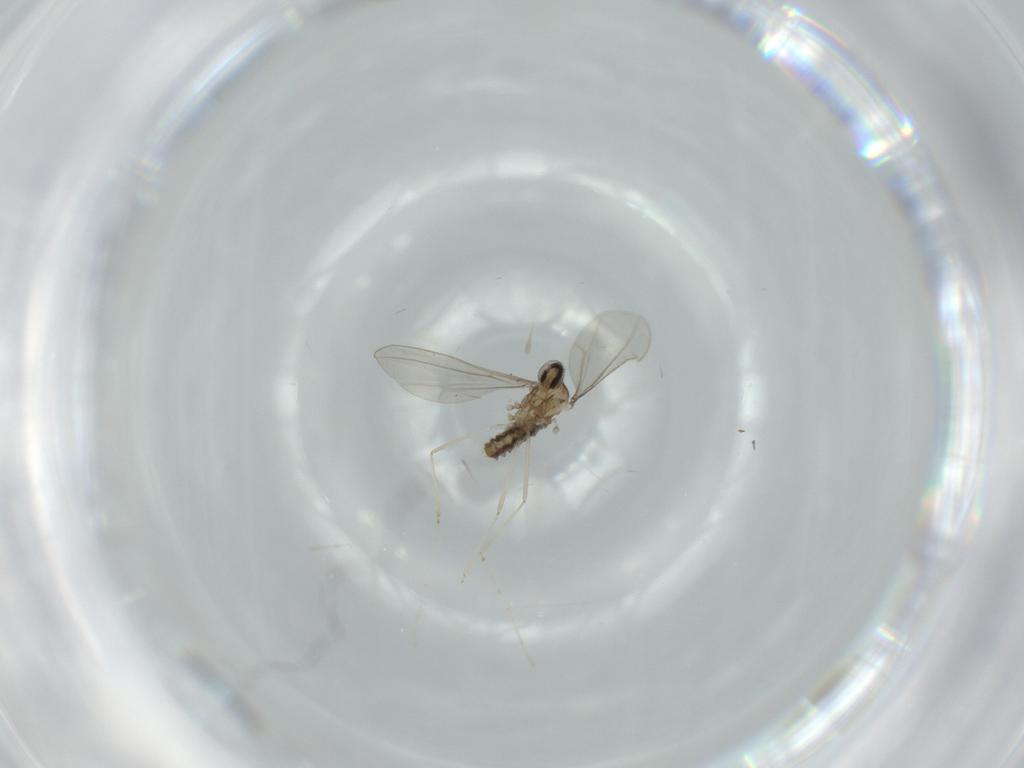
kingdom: Animalia
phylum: Arthropoda
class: Insecta
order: Diptera
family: Cecidomyiidae
